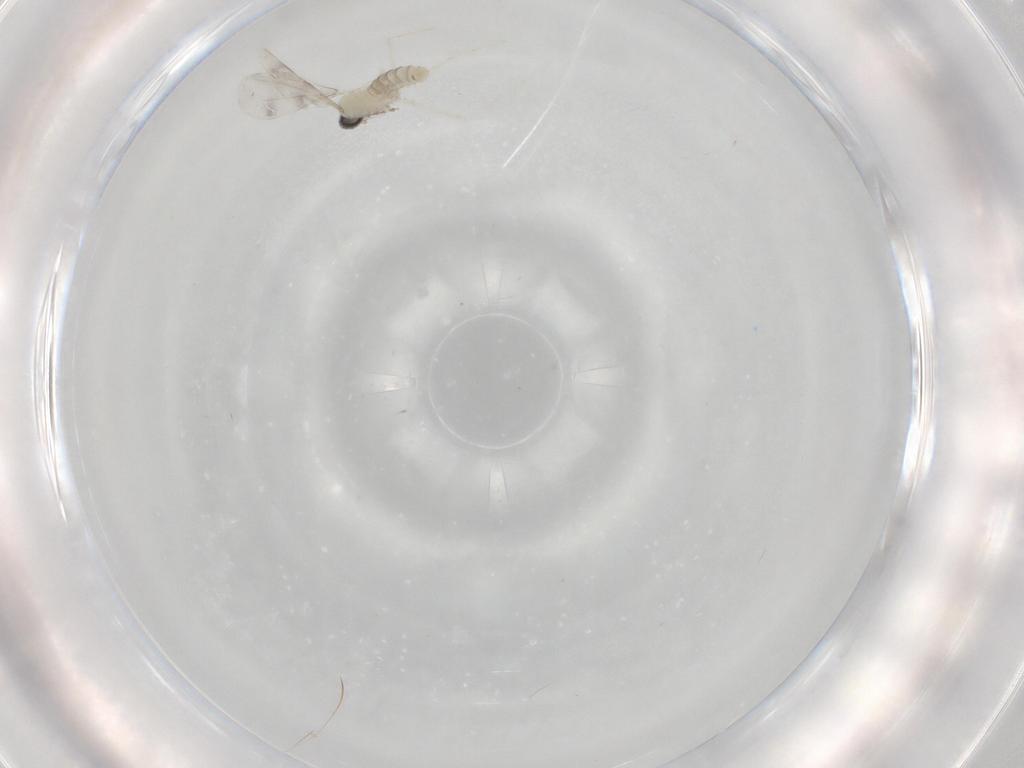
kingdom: Animalia
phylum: Arthropoda
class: Insecta
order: Diptera
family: Cecidomyiidae
